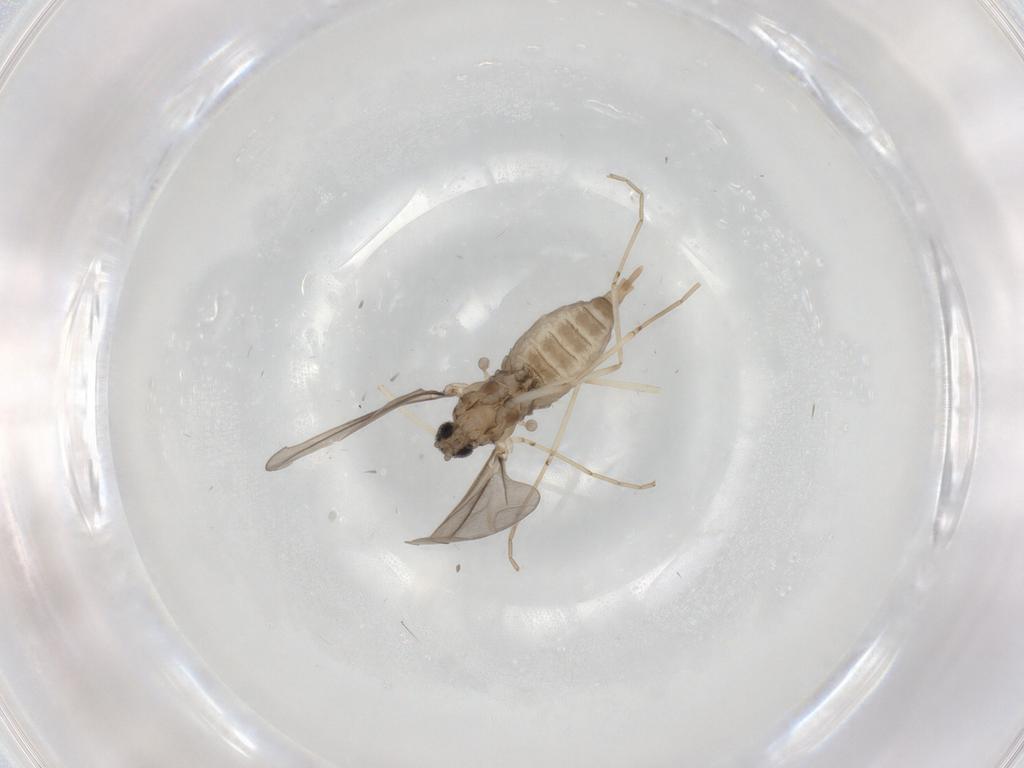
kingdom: Animalia
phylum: Arthropoda
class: Insecta
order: Diptera
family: Cecidomyiidae
